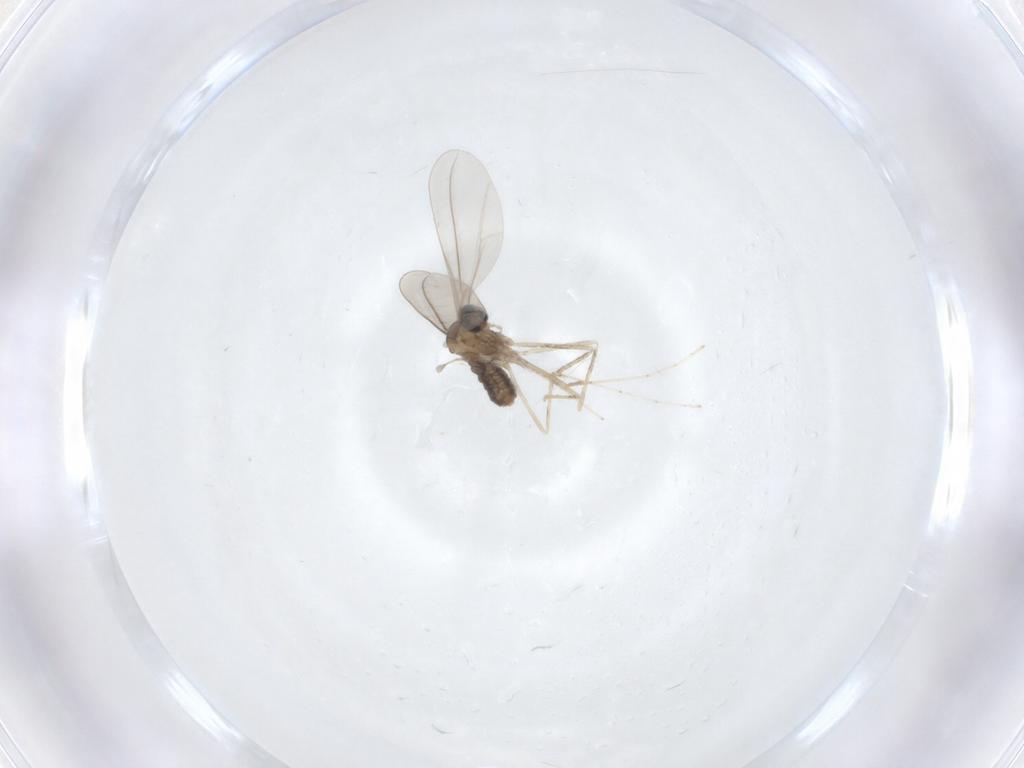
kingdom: Animalia
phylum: Arthropoda
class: Insecta
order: Diptera
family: Cecidomyiidae
